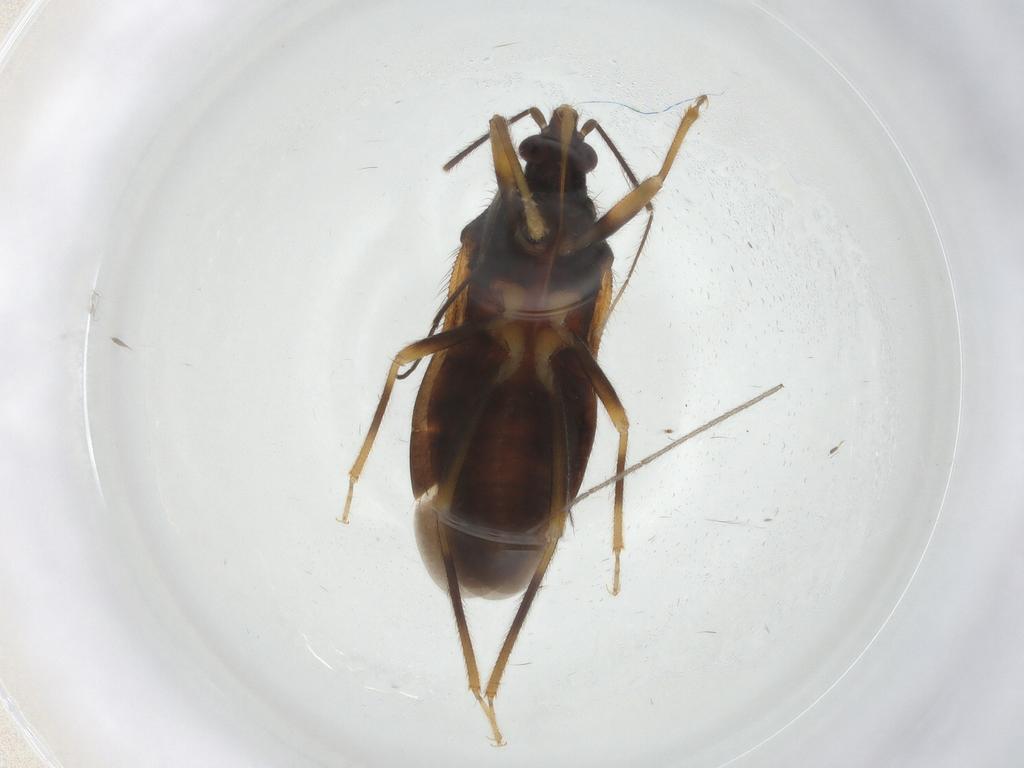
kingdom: Animalia
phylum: Arthropoda
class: Insecta
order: Hemiptera
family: Anthocoridae
